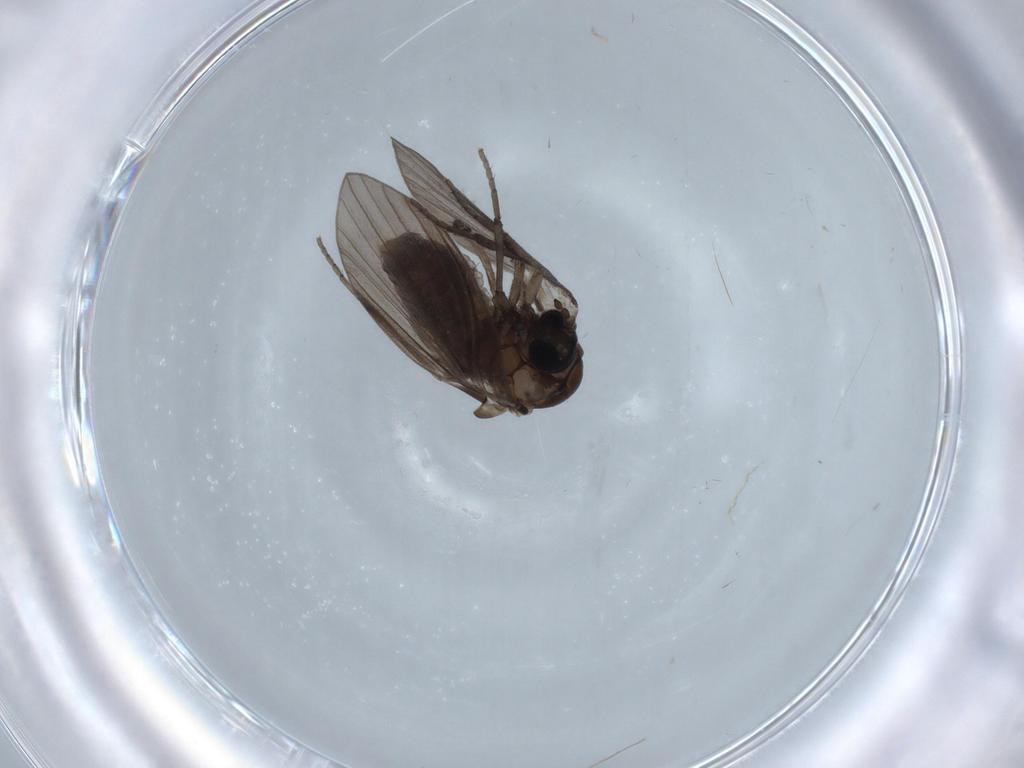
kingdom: Animalia
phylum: Arthropoda
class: Insecta
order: Diptera
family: Psychodidae
